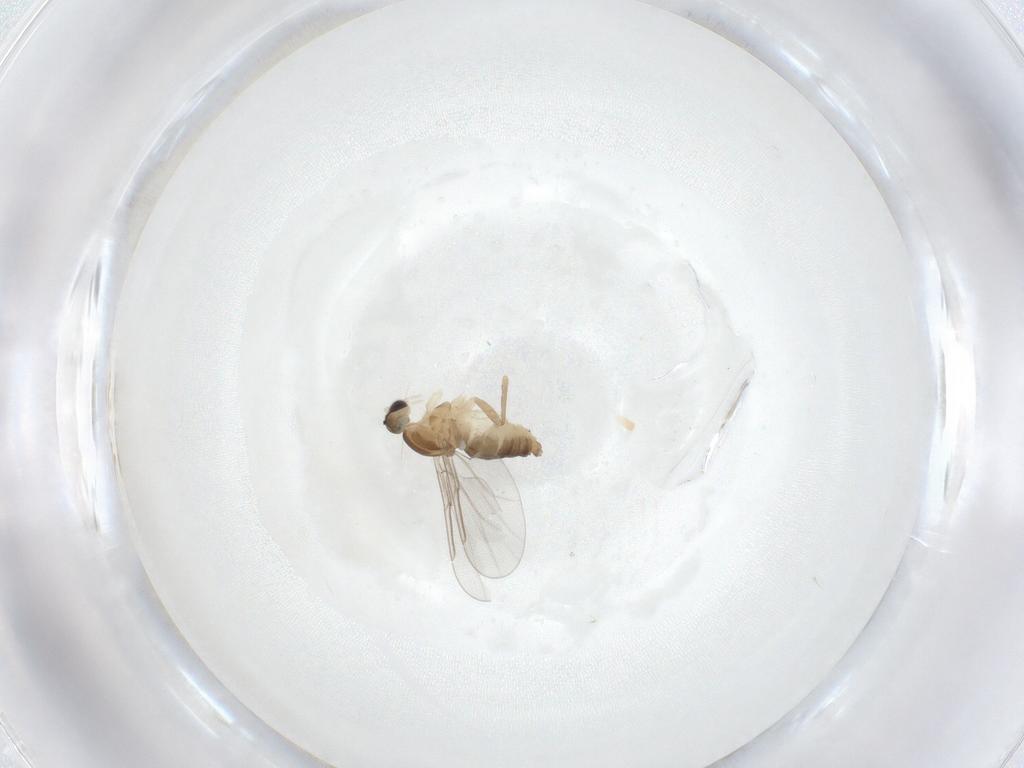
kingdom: Animalia
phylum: Arthropoda
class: Insecta
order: Diptera
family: Cecidomyiidae
